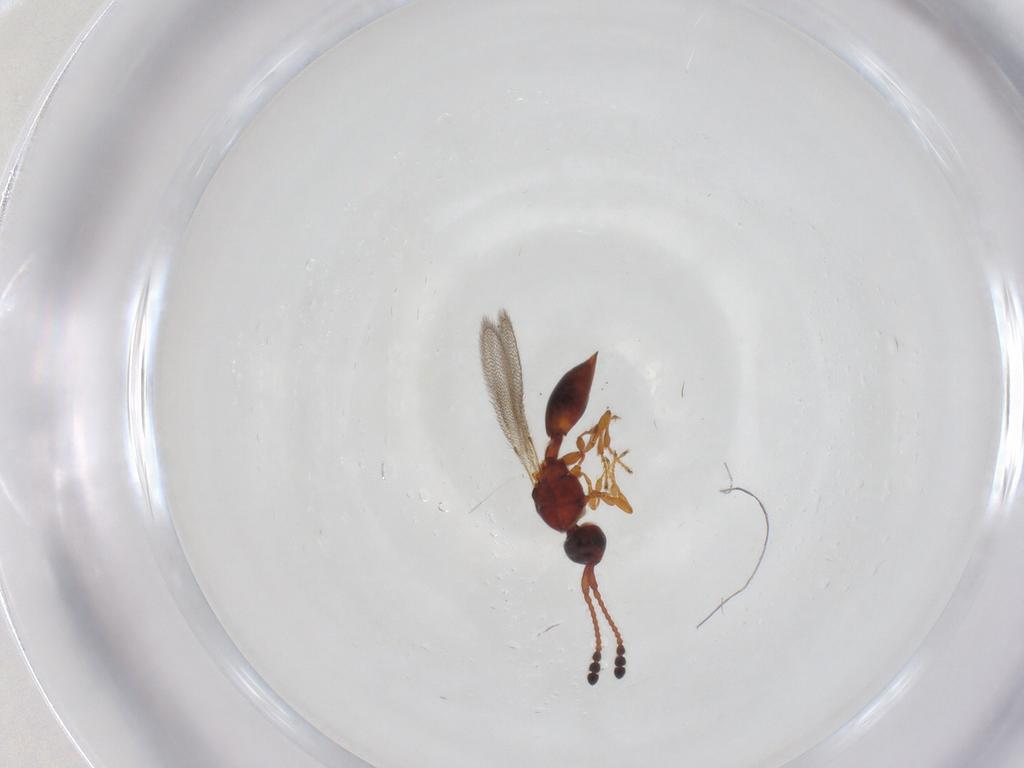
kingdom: Animalia
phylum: Arthropoda
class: Insecta
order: Hymenoptera
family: Diapriidae
